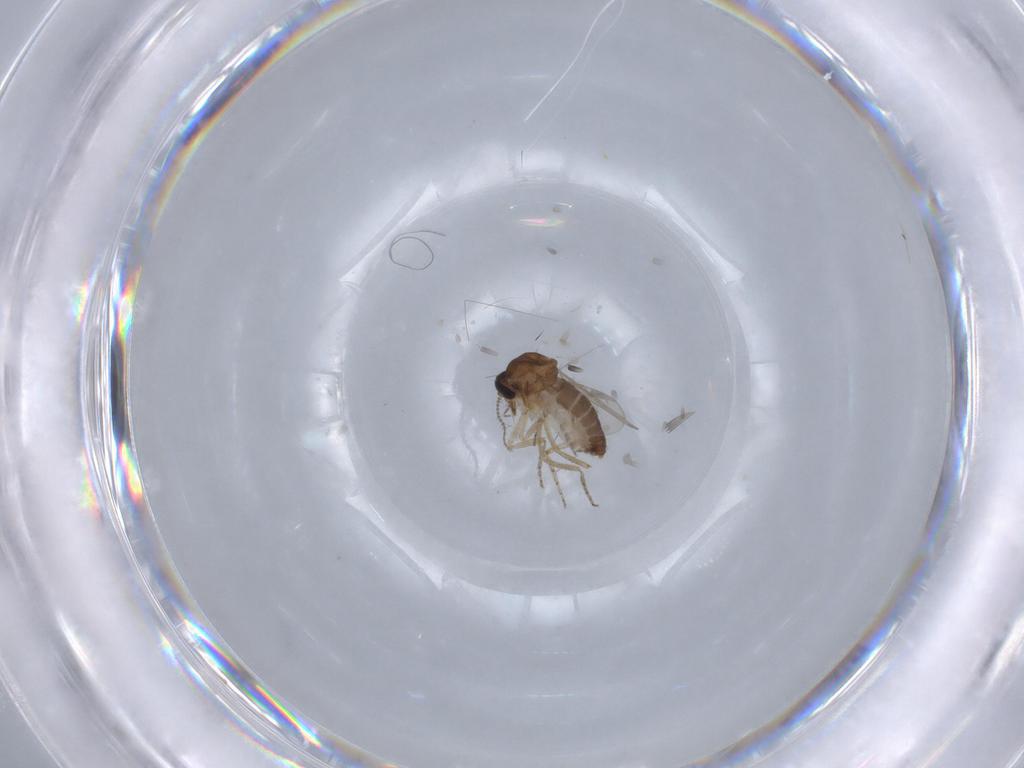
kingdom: Animalia
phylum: Arthropoda
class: Insecta
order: Diptera
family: Ceratopogonidae
